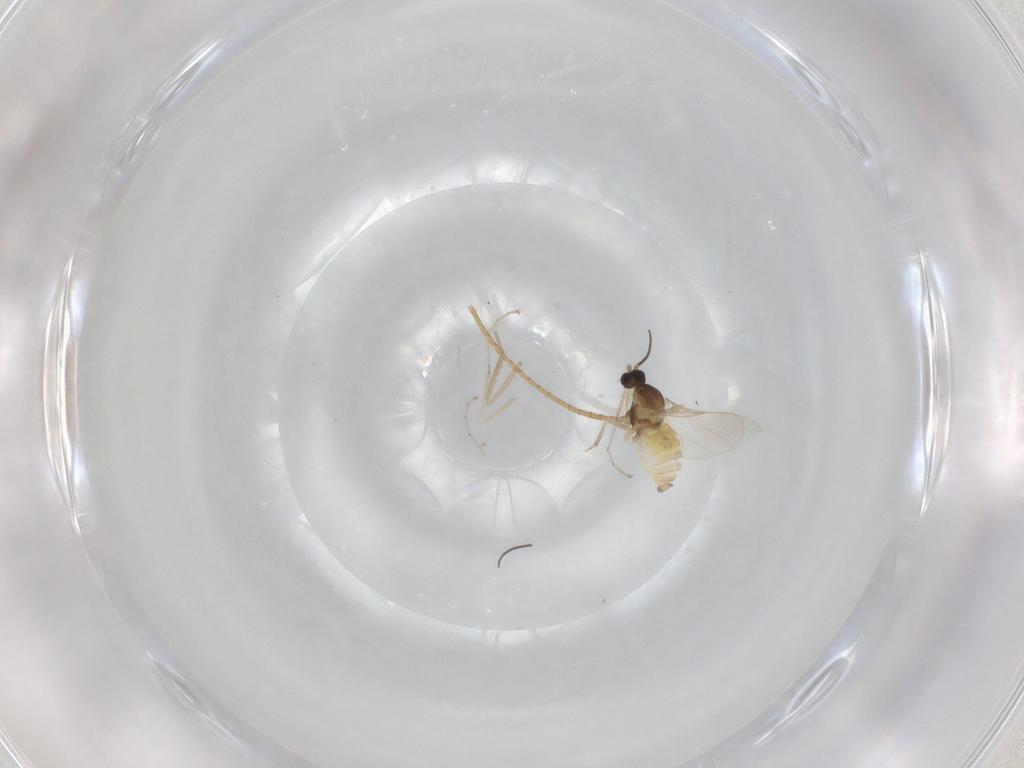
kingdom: Animalia
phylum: Arthropoda
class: Insecta
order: Diptera
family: Cecidomyiidae
